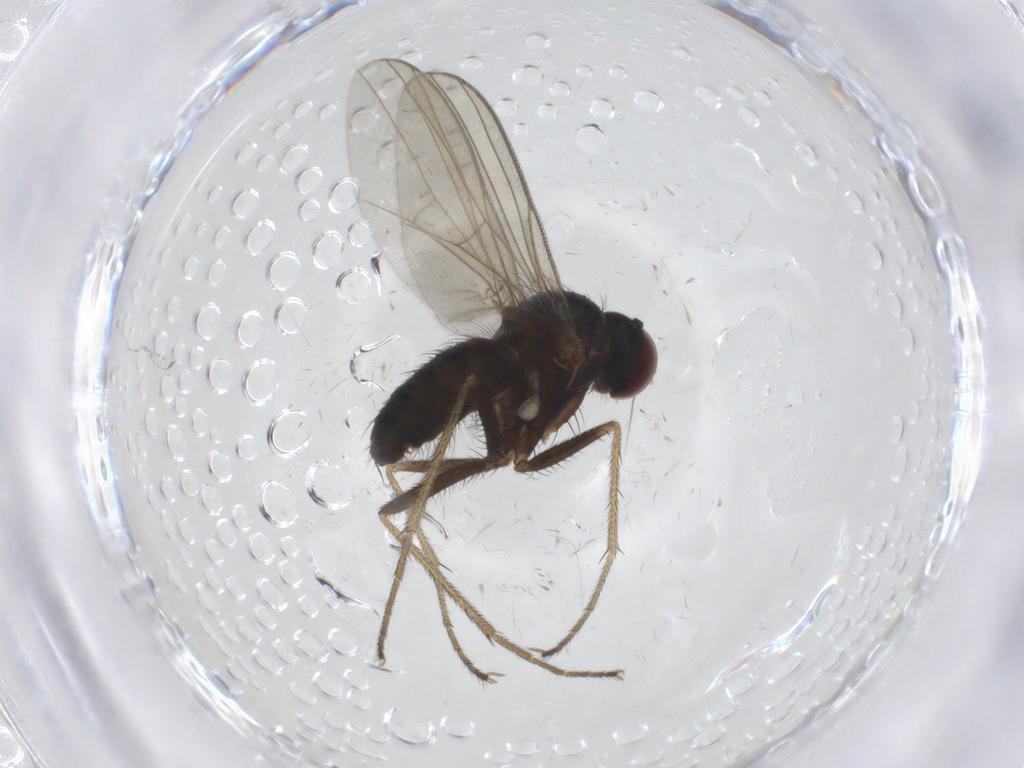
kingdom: Animalia
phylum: Arthropoda
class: Insecta
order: Diptera
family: Dolichopodidae
